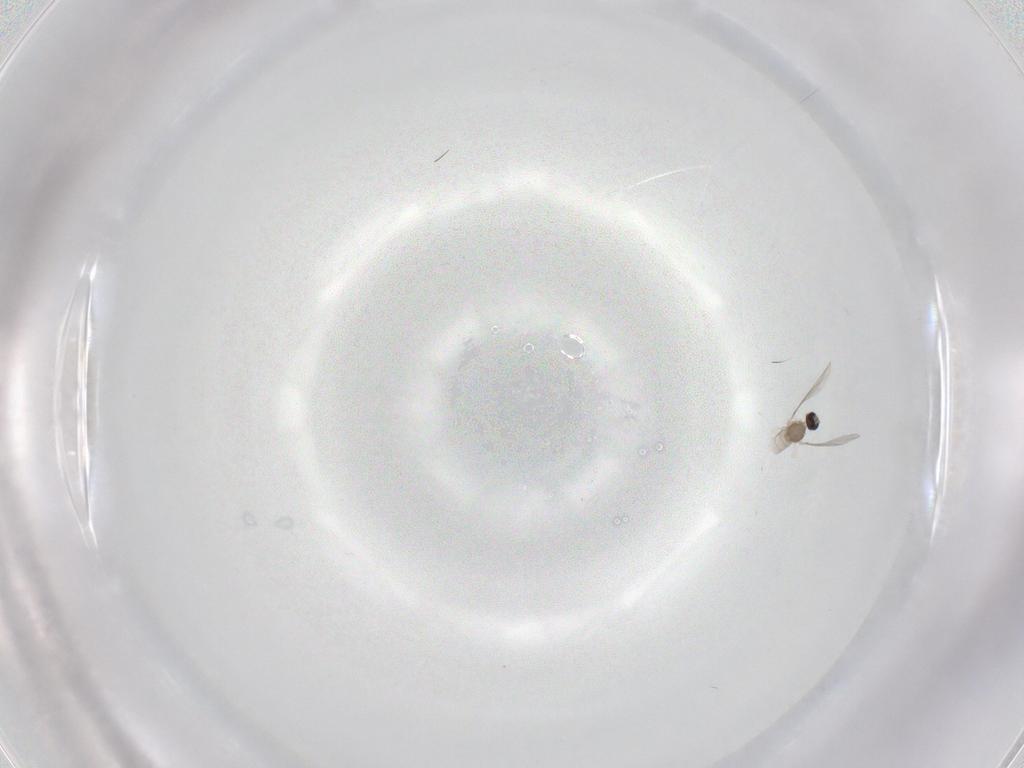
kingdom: Animalia
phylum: Arthropoda
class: Insecta
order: Diptera
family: Cecidomyiidae
